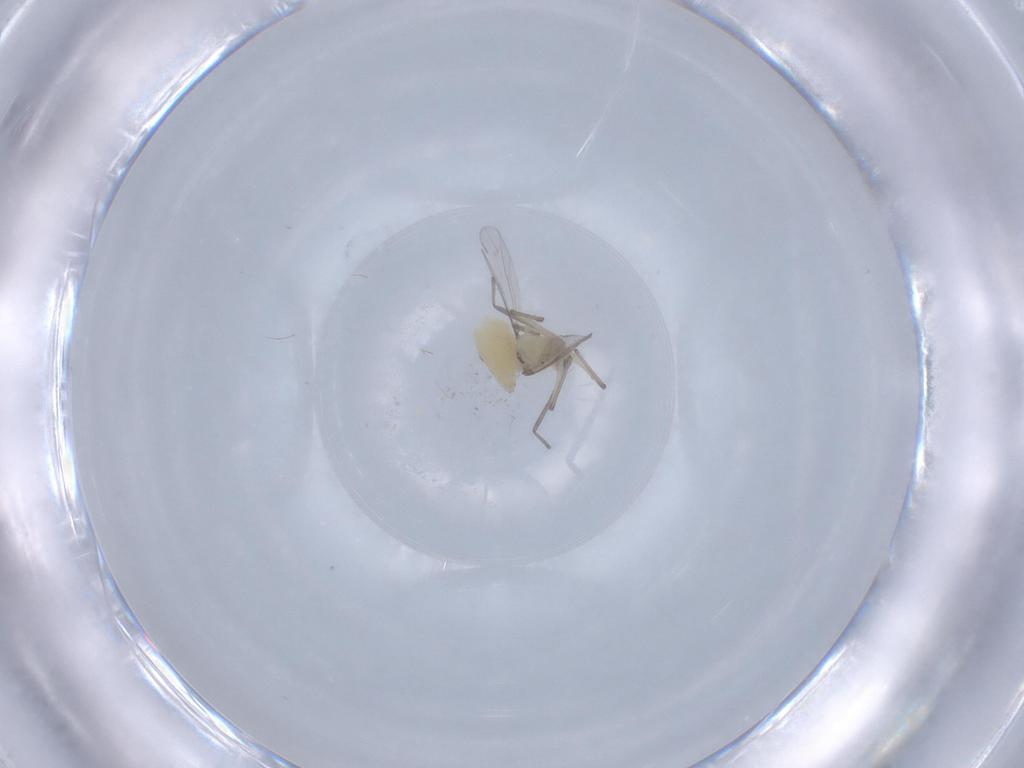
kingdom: Animalia
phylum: Arthropoda
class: Insecta
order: Diptera
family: Chironomidae
